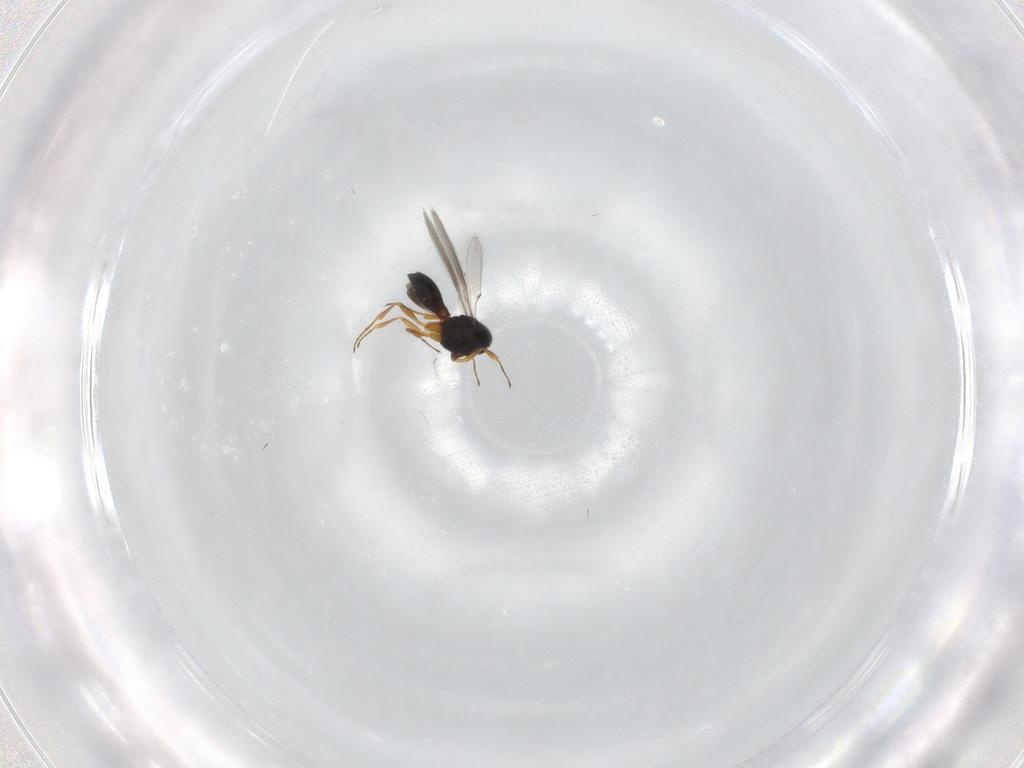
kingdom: Animalia
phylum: Arthropoda
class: Insecta
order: Hymenoptera
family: Scelionidae
